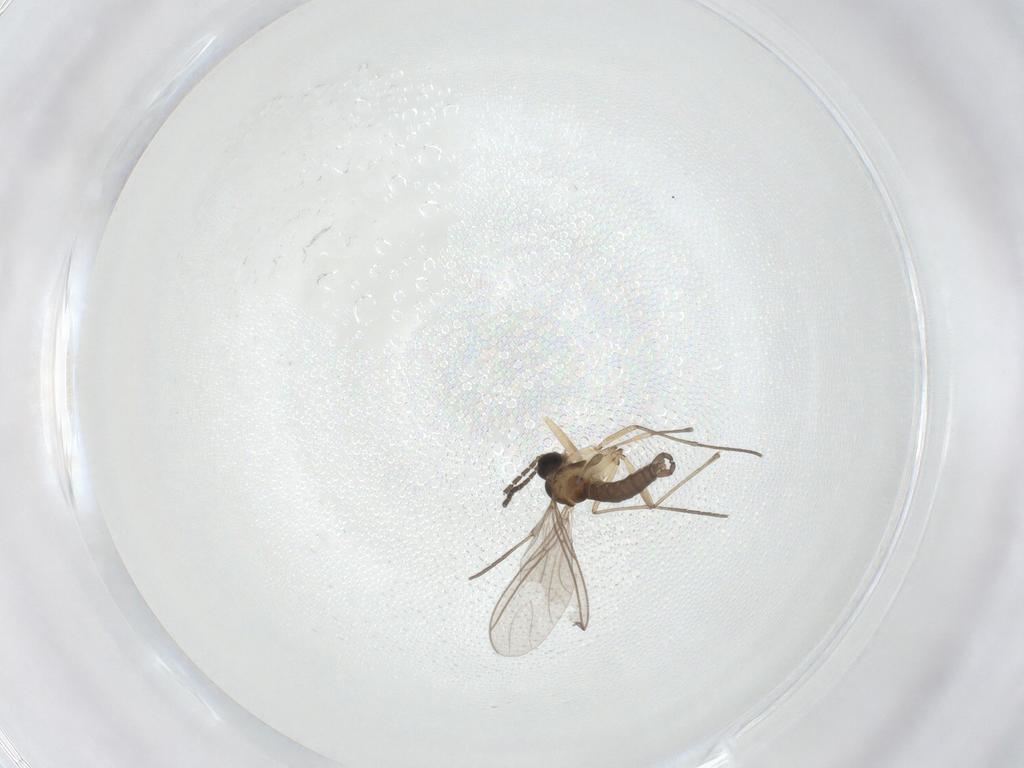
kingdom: Animalia
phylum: Arthropoda
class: Insecta
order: Diptera
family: Sciaridae
